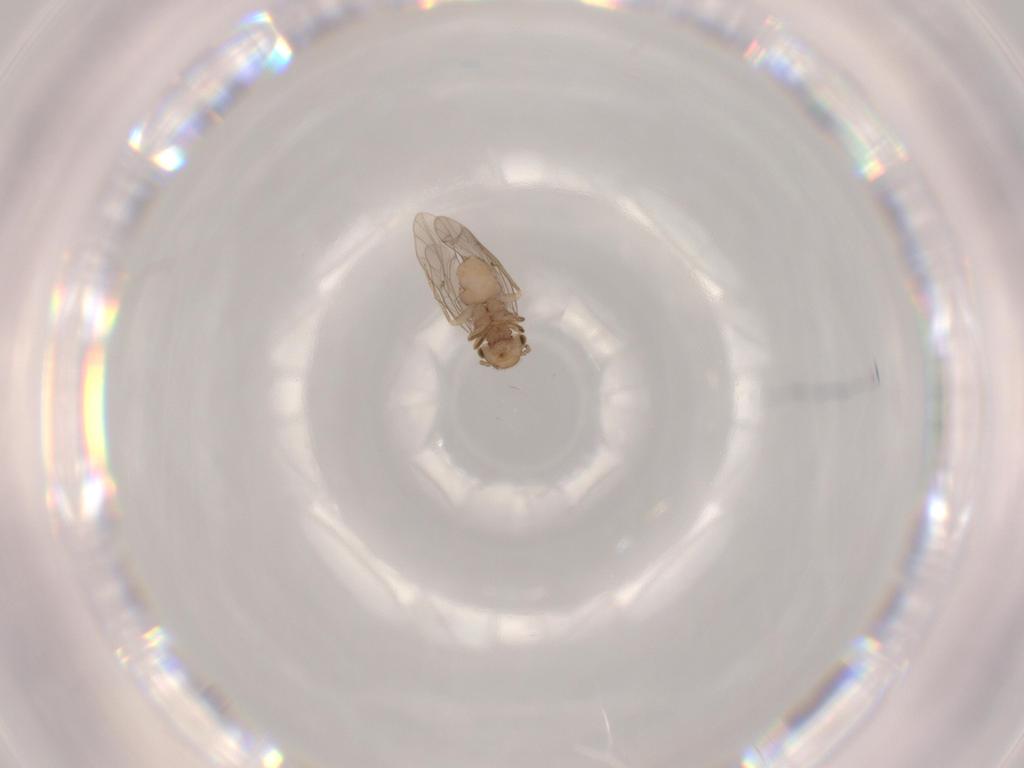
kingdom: Animalia
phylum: Arthropoda
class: Insecta
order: Psocodea
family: Ectopsocidae
